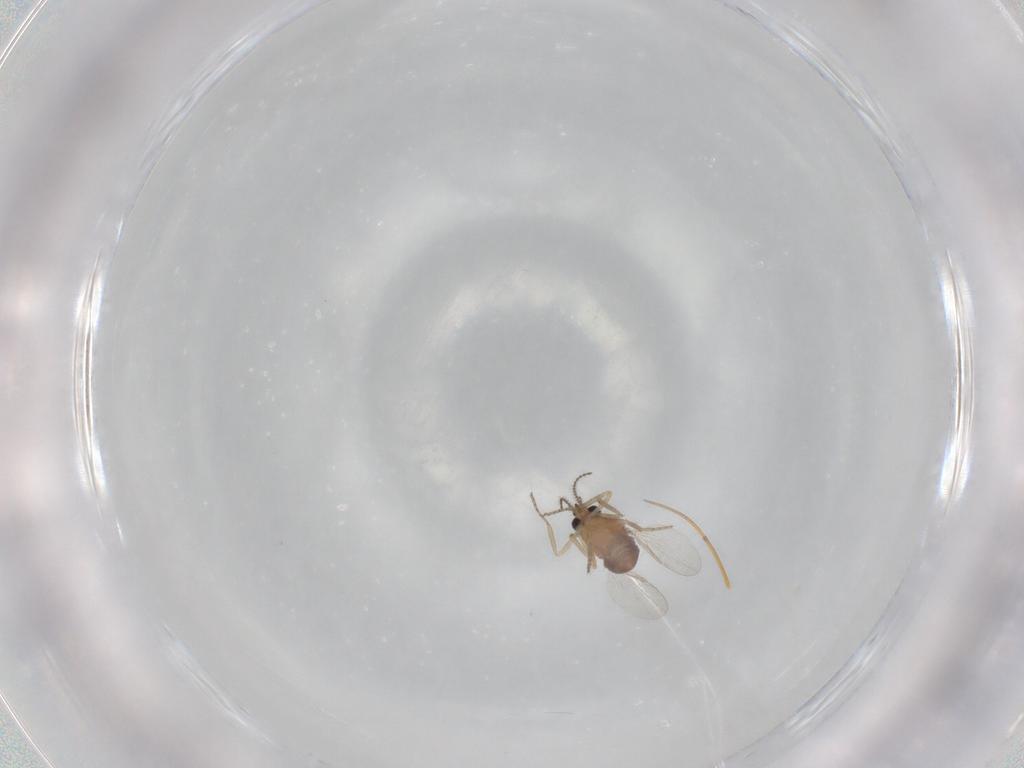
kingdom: Animalia
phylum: Arthropoda
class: Insecta
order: Diptera
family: Ceratopogonidae
